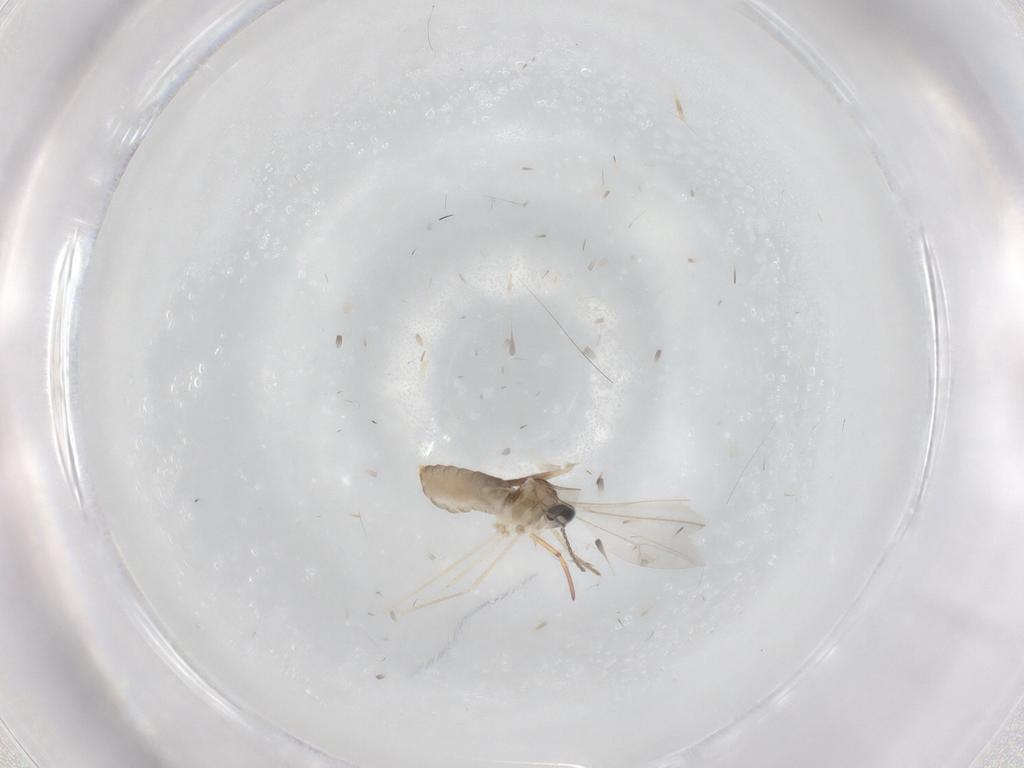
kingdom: Animalia
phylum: Arthropoda
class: Insecta
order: Diptera
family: Cecidomyiidae
